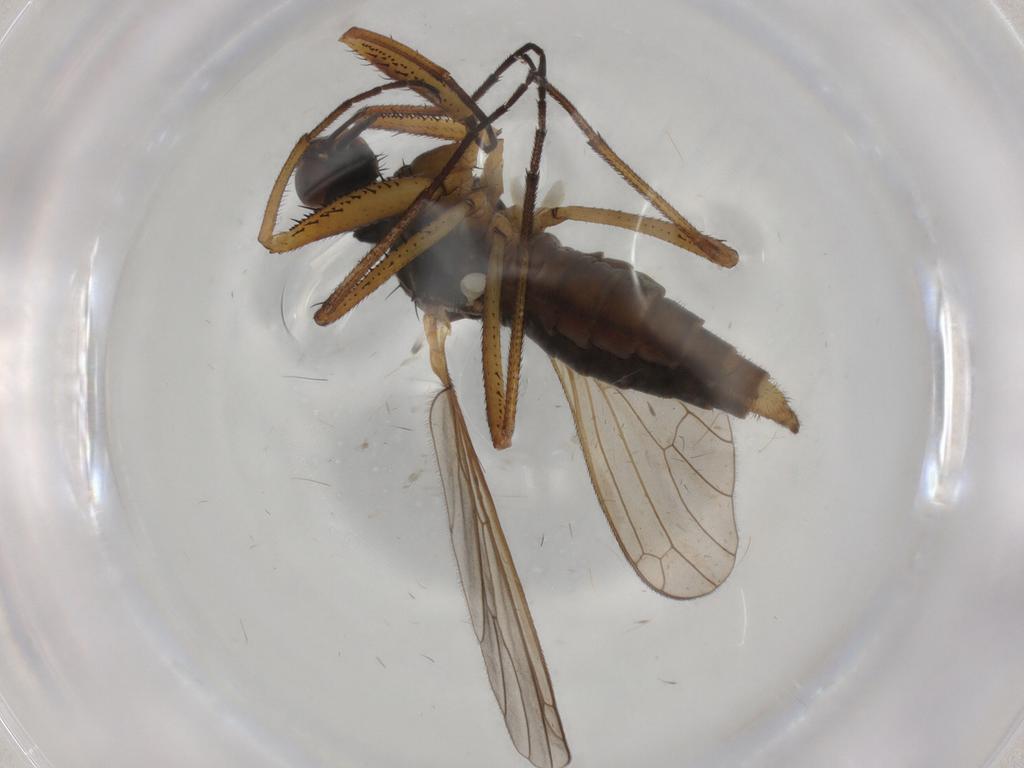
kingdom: Animalia
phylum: Arthropoda
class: Insecta
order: Diptera
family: Empididae
